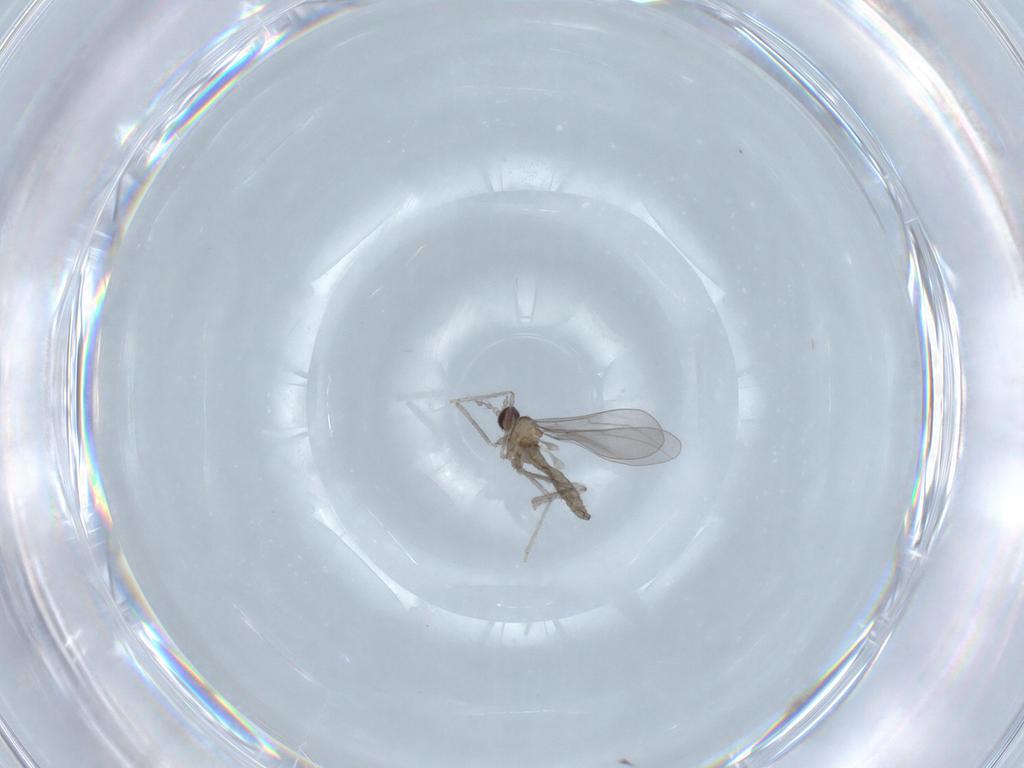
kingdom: Animalia
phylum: Arthropoda
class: Insecta
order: Diptera
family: Cecidomyiidae
